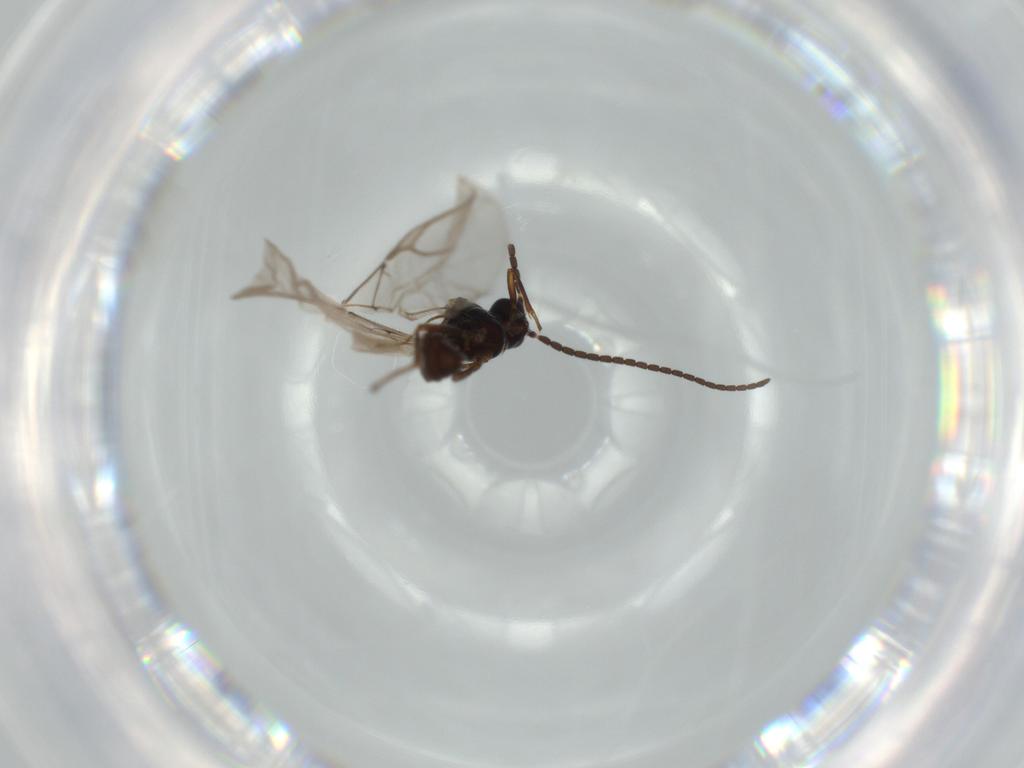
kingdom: Animalia
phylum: Arthropoda
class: Insecta
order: Hymenoptera
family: Braconidae
